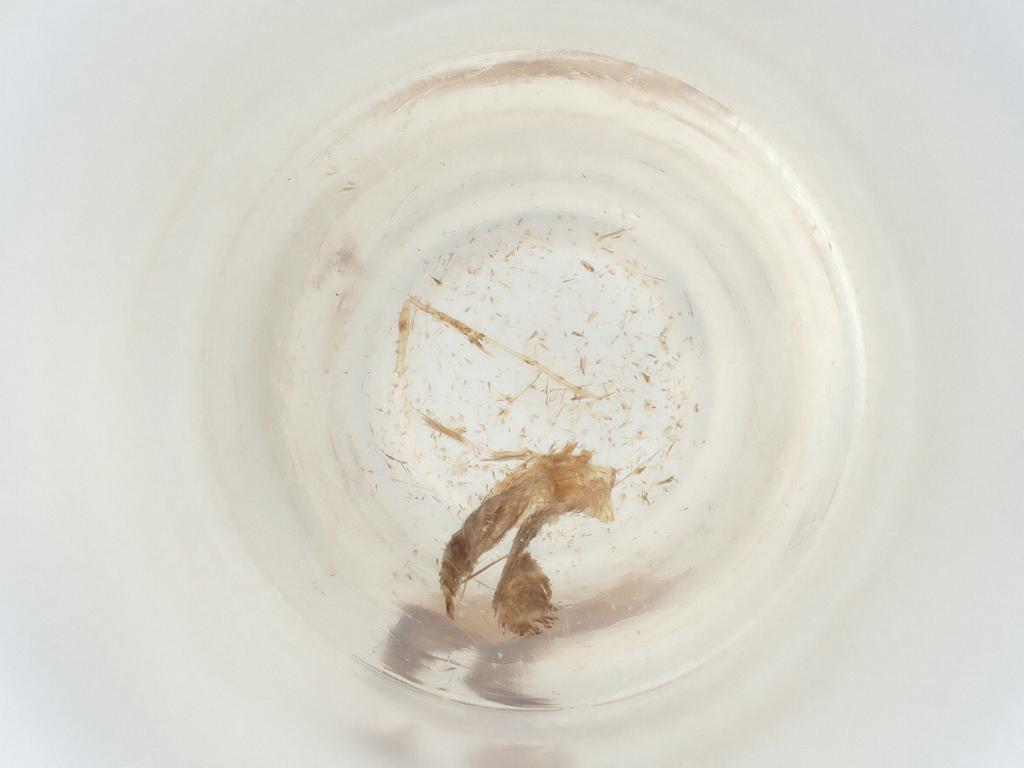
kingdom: Animalia
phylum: Arthropoda
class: Insecta
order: Lepidoptera
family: Gracillariidae
